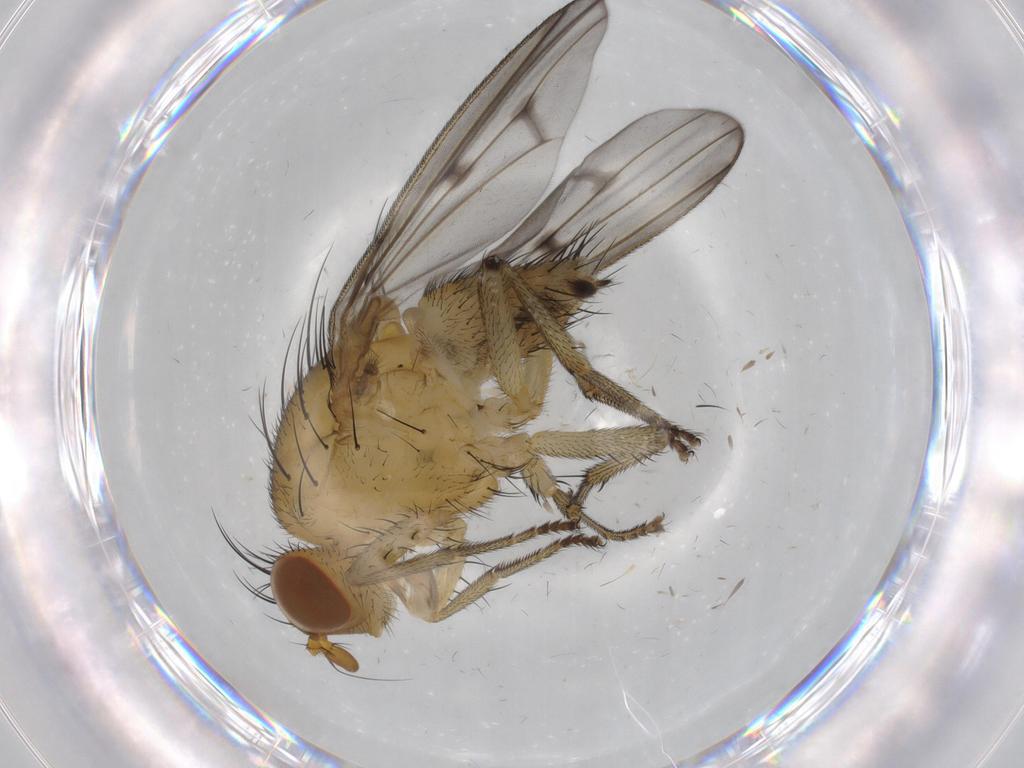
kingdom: Animalia
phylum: Arthropoda
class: Insecta
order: Diptera
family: Sciaridae
